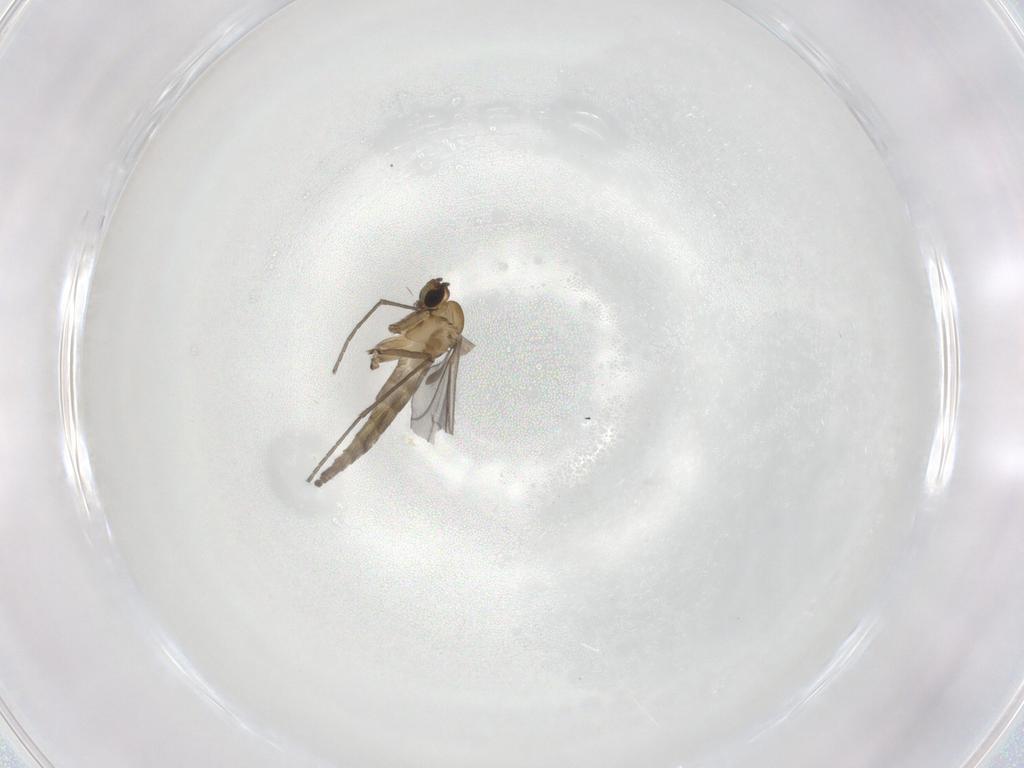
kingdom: Animalia
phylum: Arthropoda
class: Insecta
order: Diptera
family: Sciaridae
